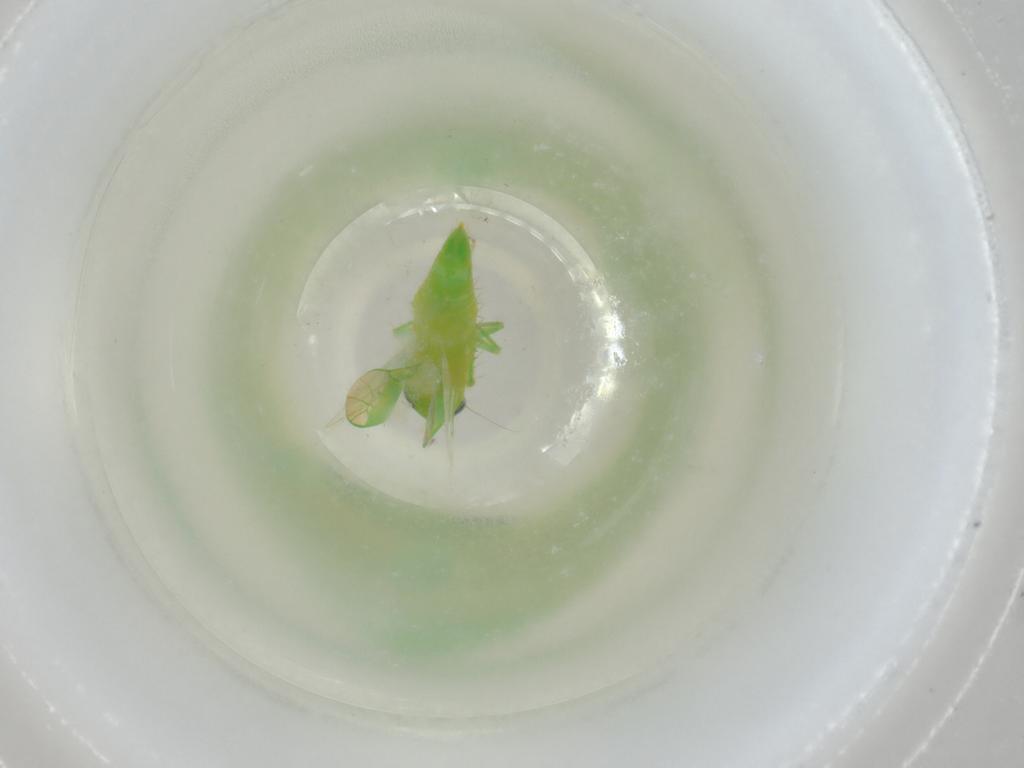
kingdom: Animalia
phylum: Arthropoda
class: Insecta
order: Hemiptera
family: Cicadellidae
